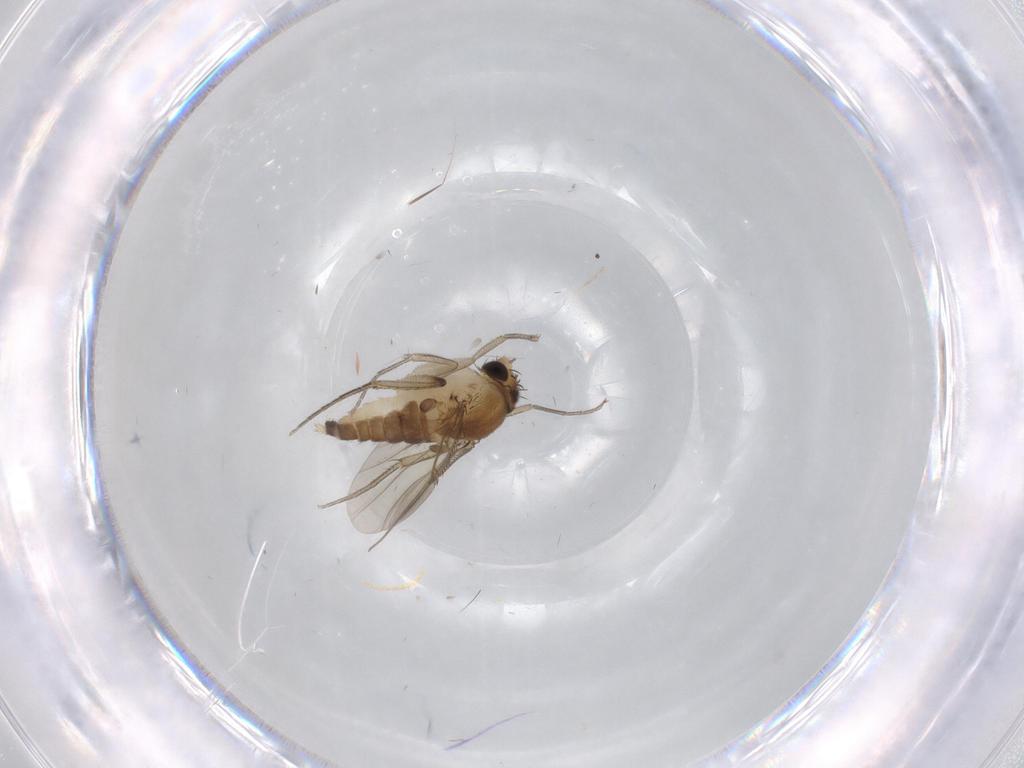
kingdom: Animalia
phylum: Arthropoda
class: Insecta
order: Diptera
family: Phoridae
